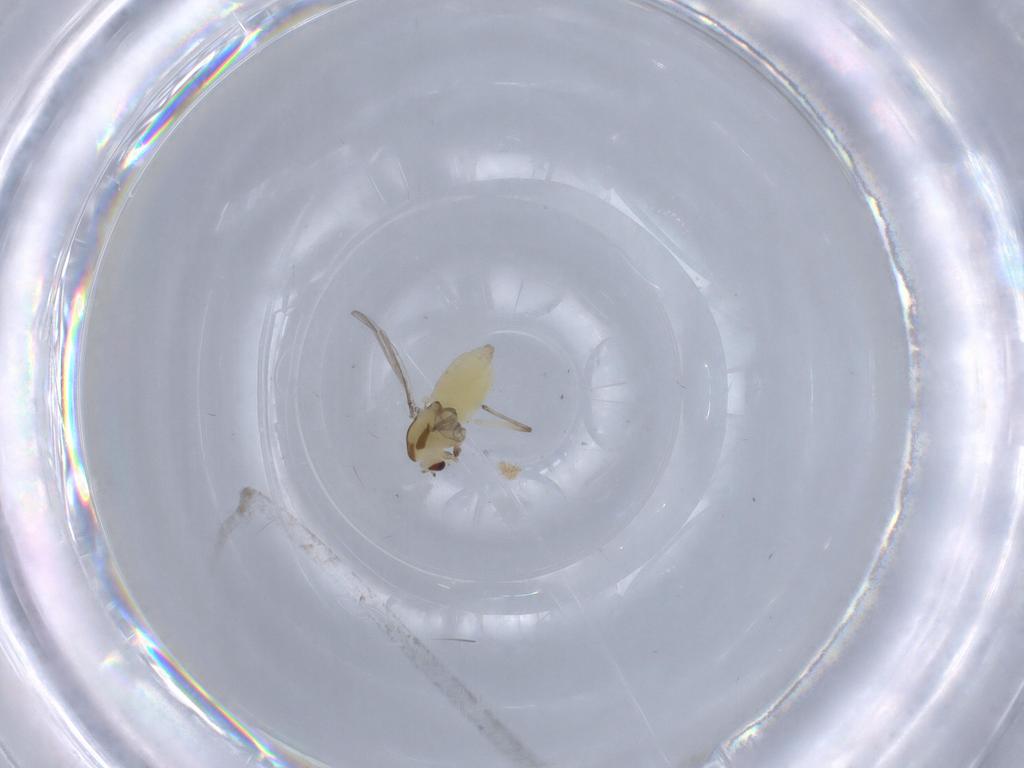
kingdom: Animalia
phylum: Arthropoda
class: Insecta
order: Diptera
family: Chironomidae
